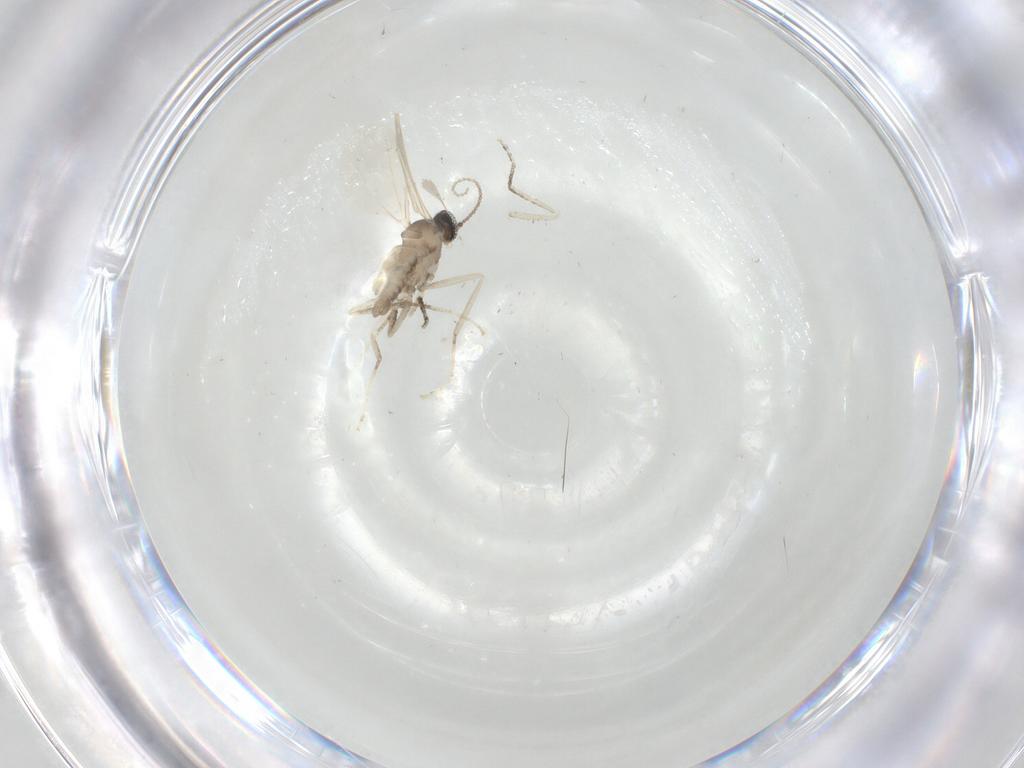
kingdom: Animalia
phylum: Arthropoda
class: Insecta
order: Diptera
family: Cecidomyiidae
